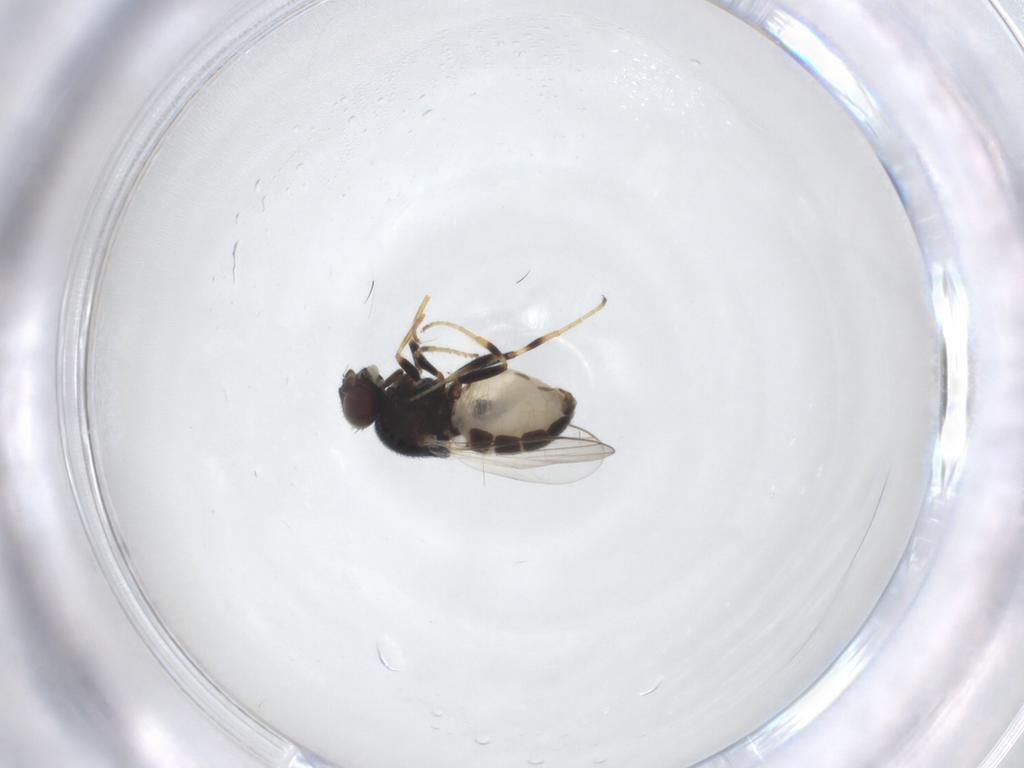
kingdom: Animalia
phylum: Arthropoda
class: Insecta
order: Diptera
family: Chloropidae
